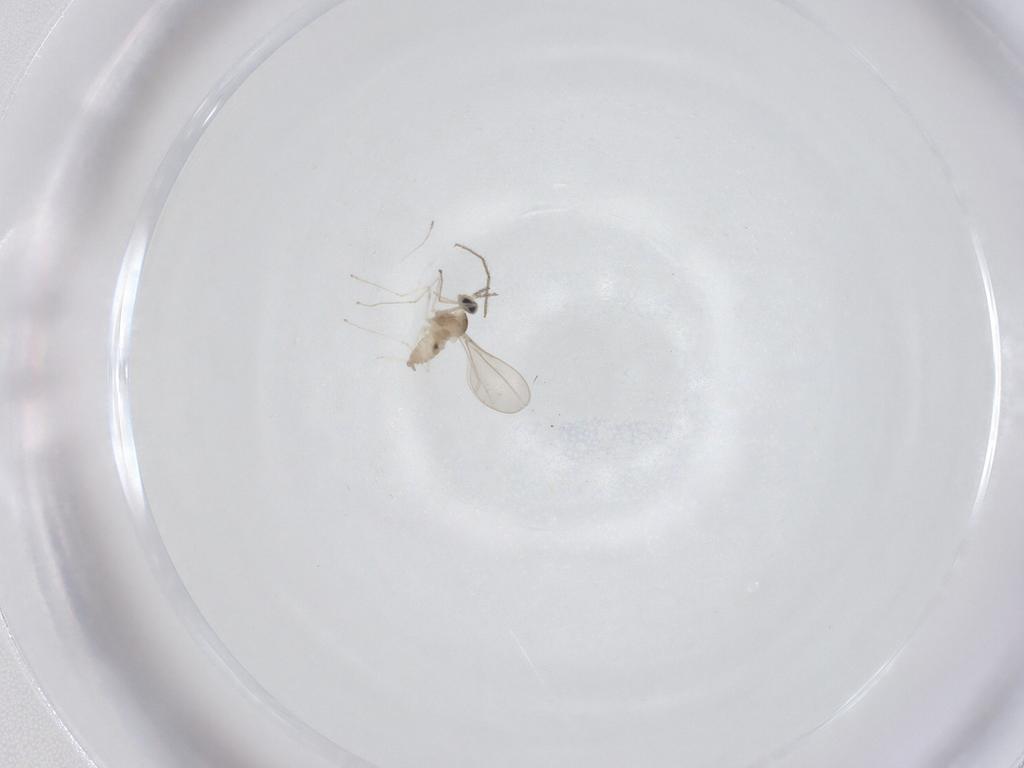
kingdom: Animalia
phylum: Arthropoda
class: Insecta
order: Diptera
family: Chironomidae
